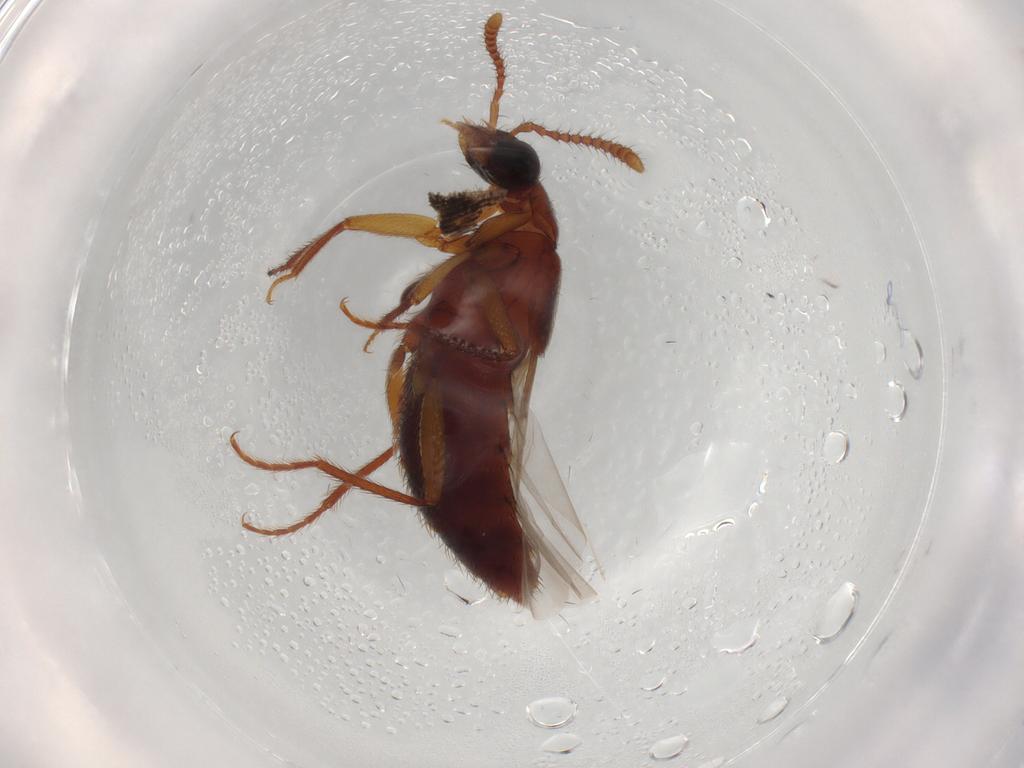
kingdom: Animalia
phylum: Arthropoda
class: Insecta
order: Coleoptera
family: Staphylinidae
